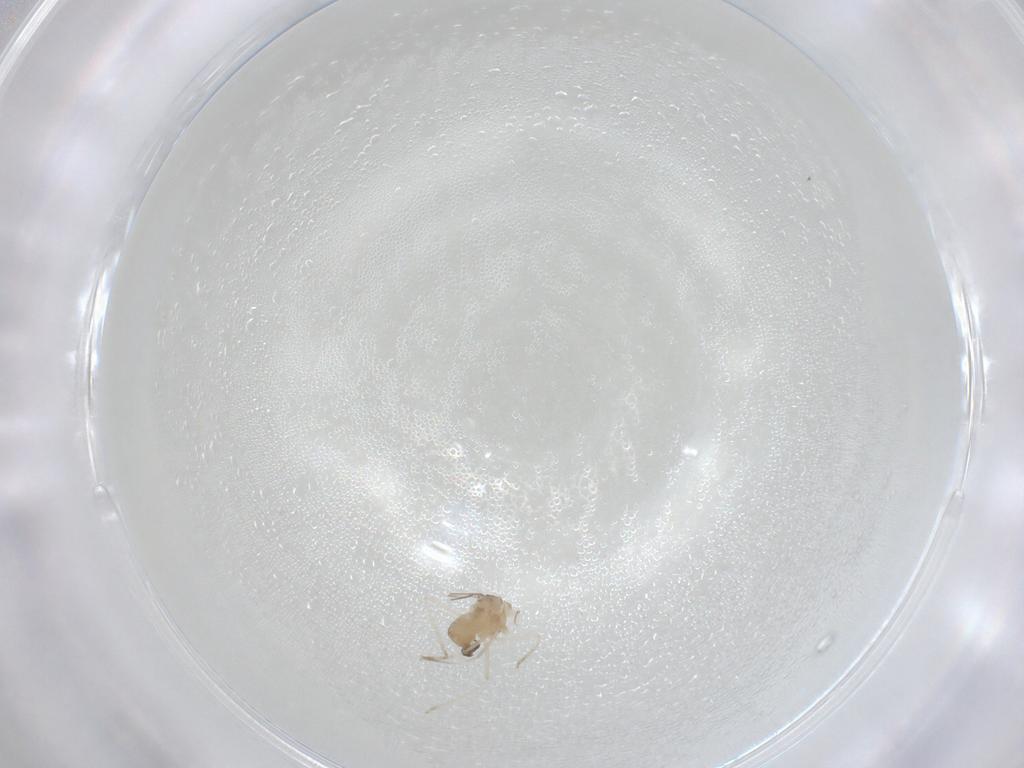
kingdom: Animalia
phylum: Arthropoda
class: Insecta
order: Diptera
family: Cecidomyiidae
